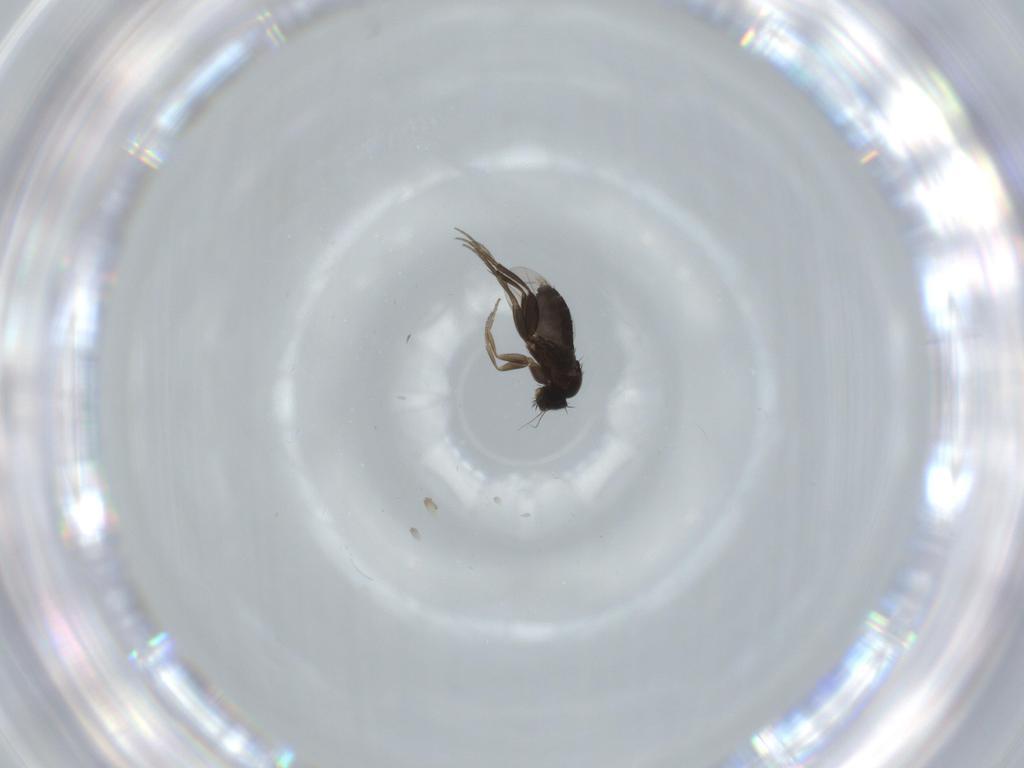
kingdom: Animalia
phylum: Arthropoda
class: Insecta
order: Diptera
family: Phoridae
